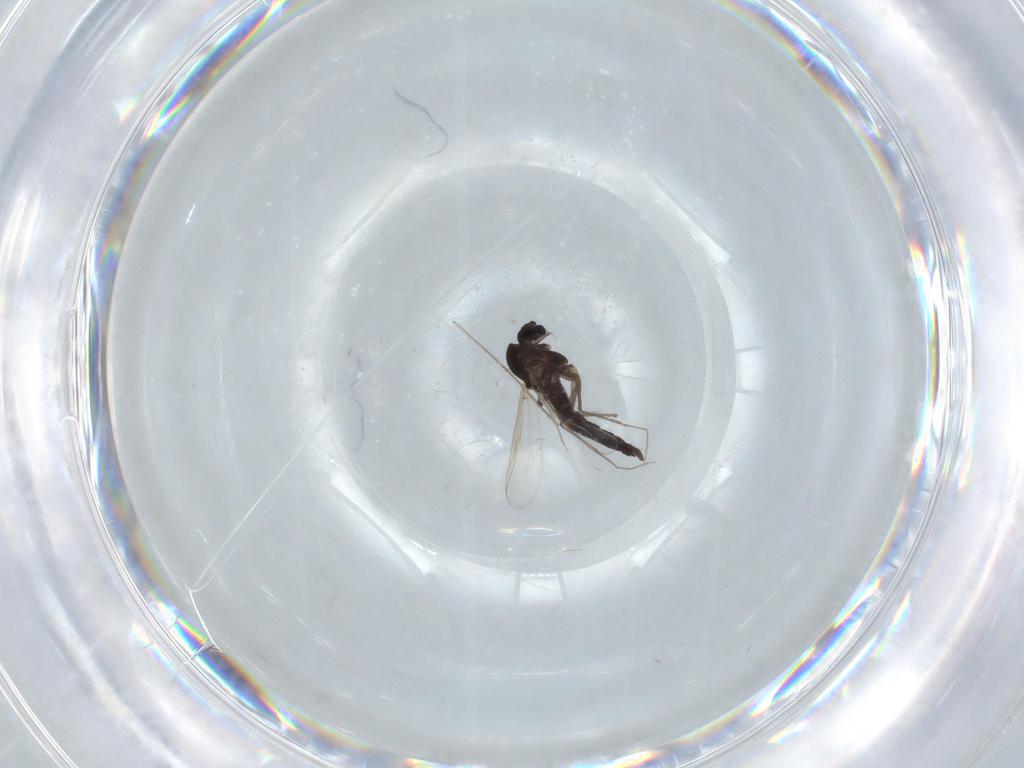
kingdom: Animalia
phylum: Arthropoda
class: Insecta
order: Diptera
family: Chironomidae
